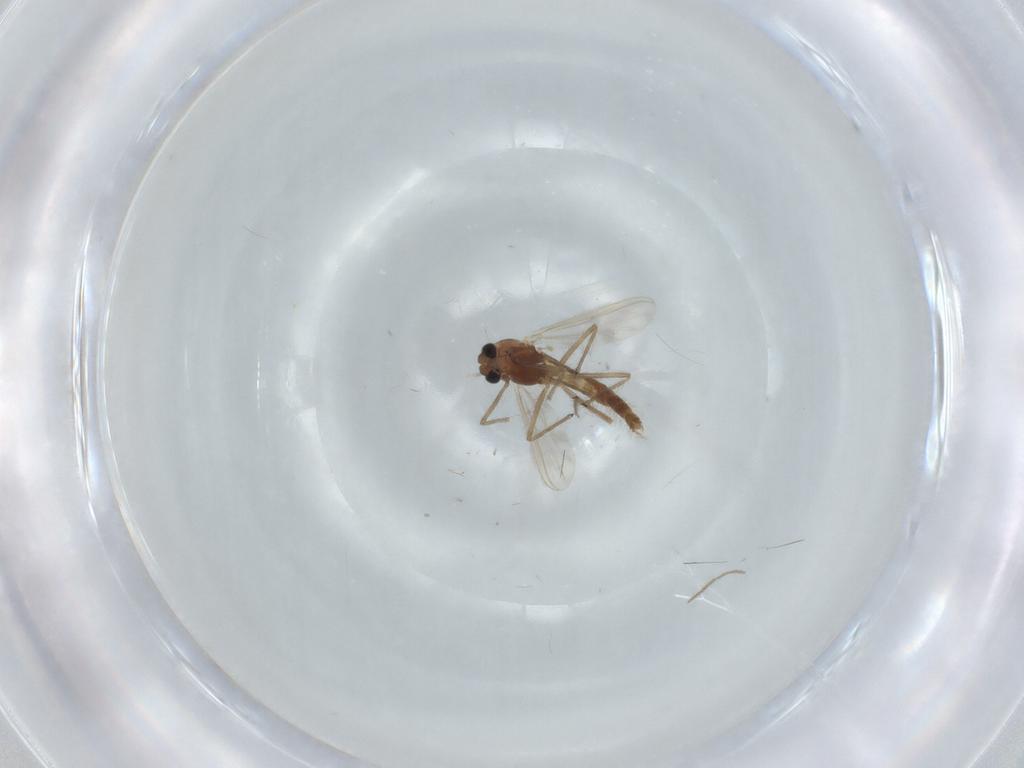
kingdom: Animalia
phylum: Arthropoda
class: Insecta
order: Diptera
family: Chironomidae
